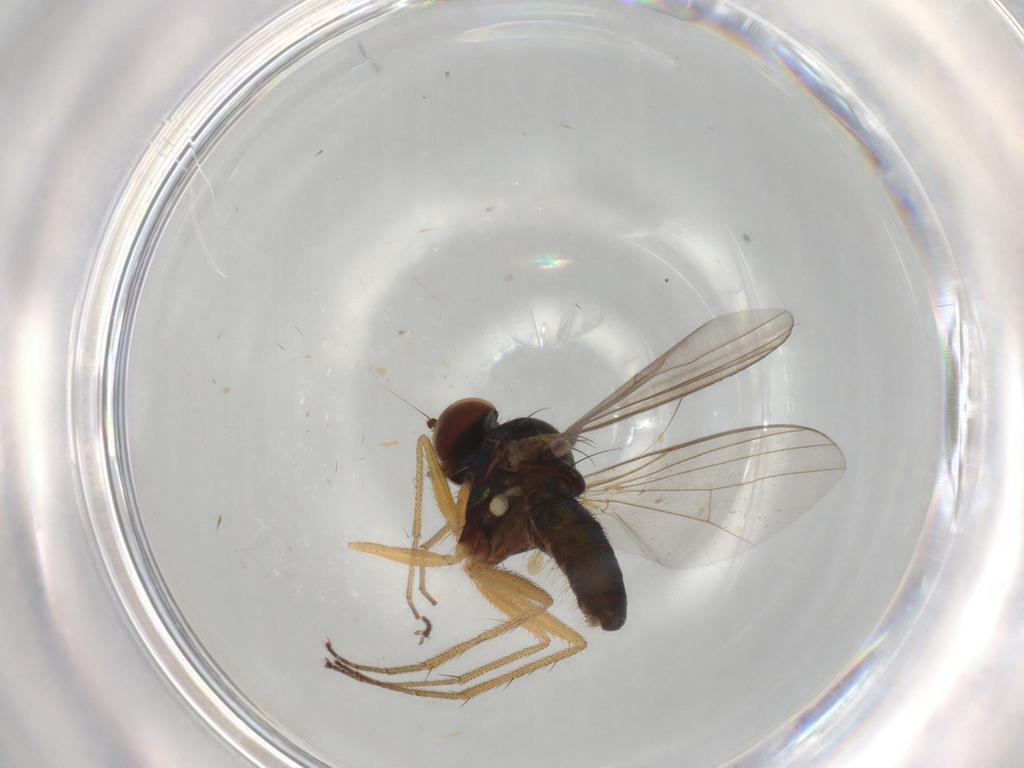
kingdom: Animalia
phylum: Arthropoda
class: Insecta
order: Diptera
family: Dolichopodidae
